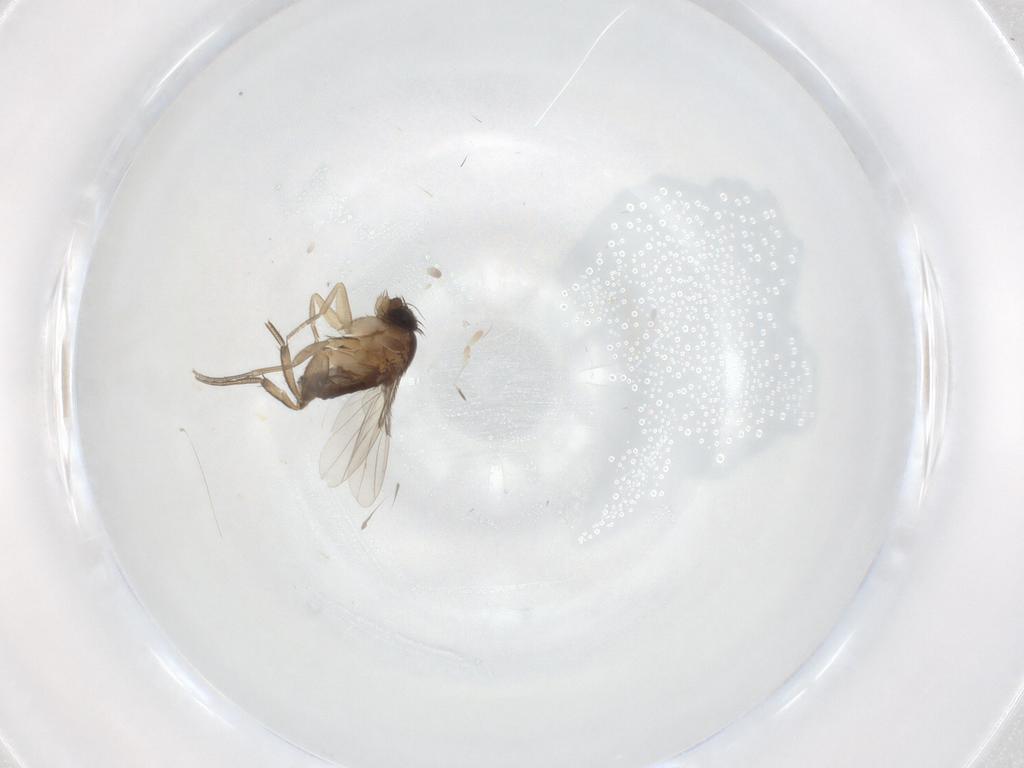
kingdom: Animalia
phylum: Arthropoda
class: Insecta
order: Diptera
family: Phoridae
